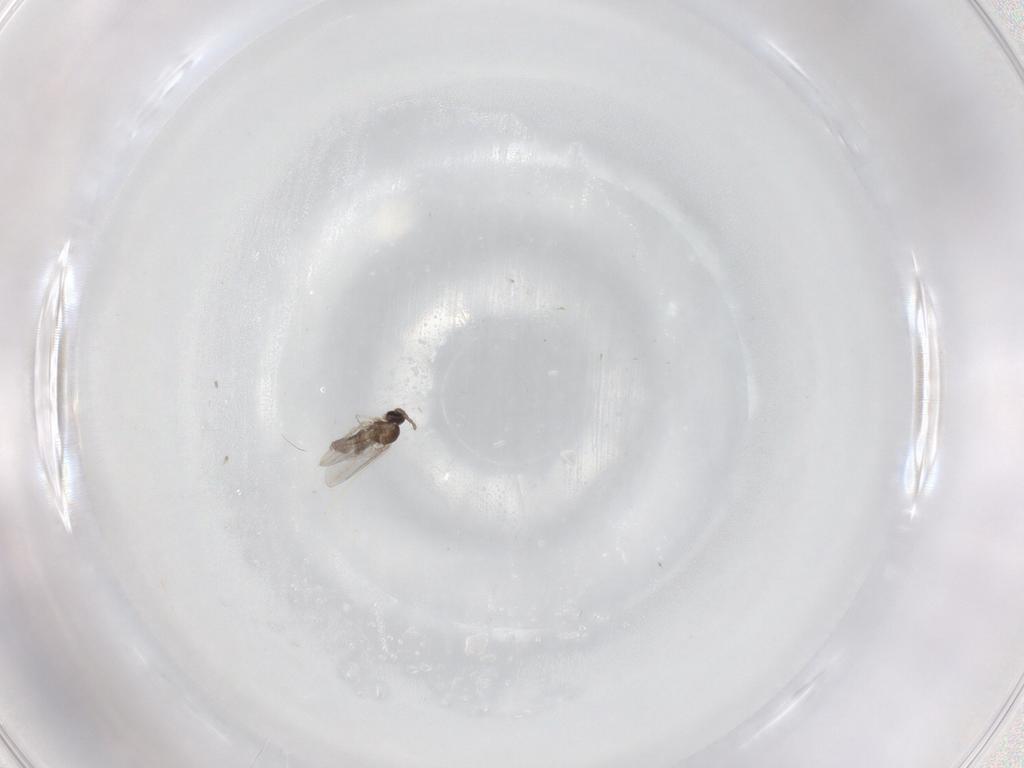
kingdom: Animalia
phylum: Arthropoda
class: Insecta
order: Diptera
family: Cecidomyiidae
